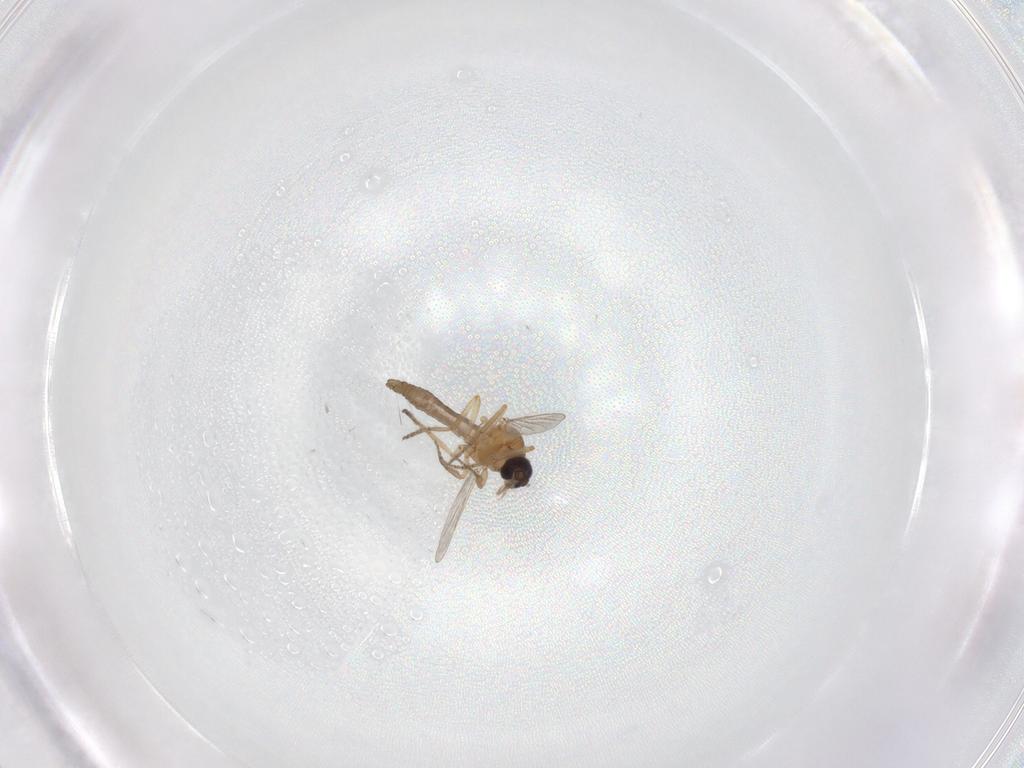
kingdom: Animalia
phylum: Arthropoda
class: Insecta
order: Diptera
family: Ceratopogonidae
